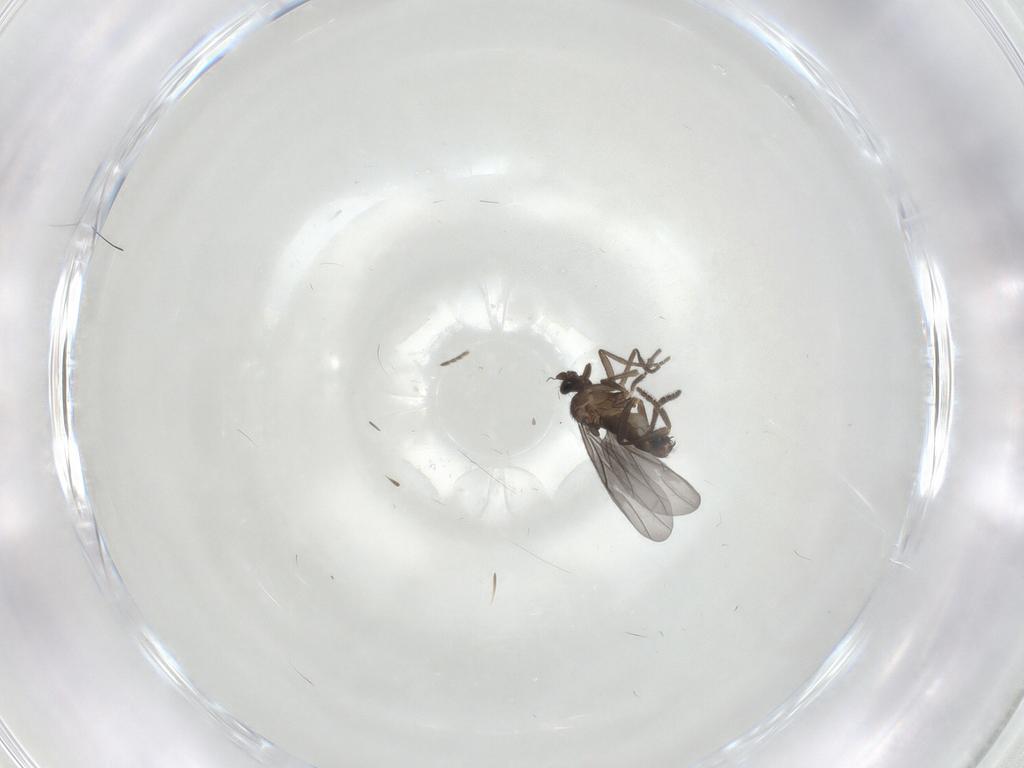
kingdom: Animalia
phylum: Arthropoda
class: Insecta
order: Diptera
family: Phoridae
